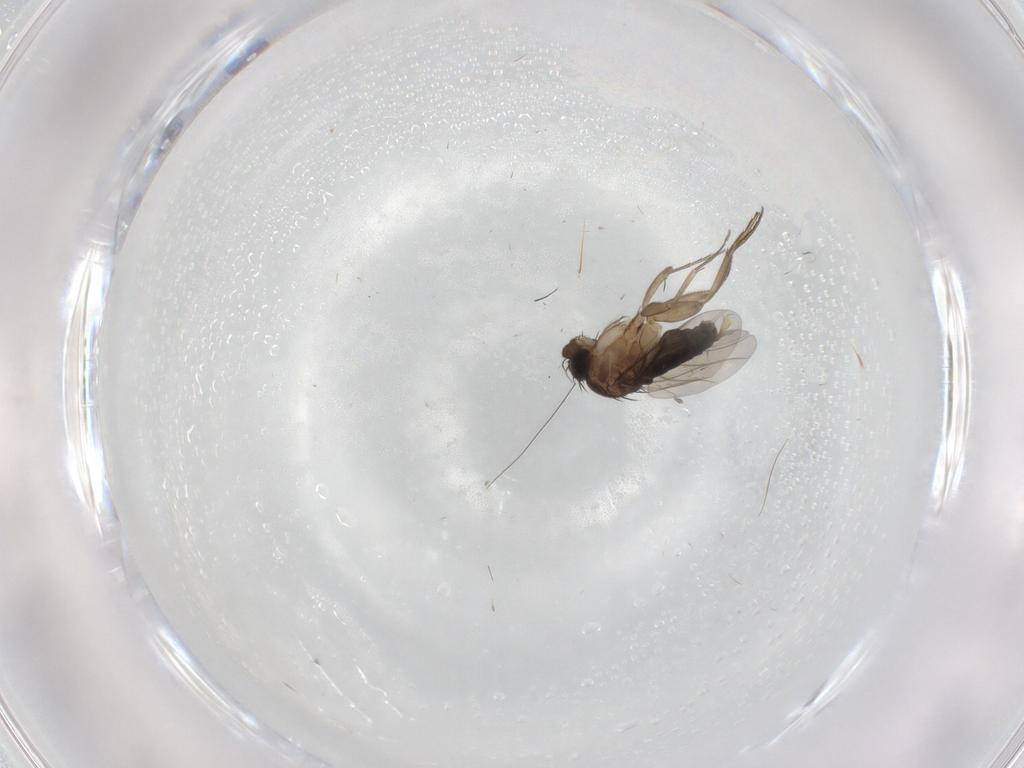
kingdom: Animalia
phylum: Arthropoda
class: Insecta
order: Diptera
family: Phoridae
